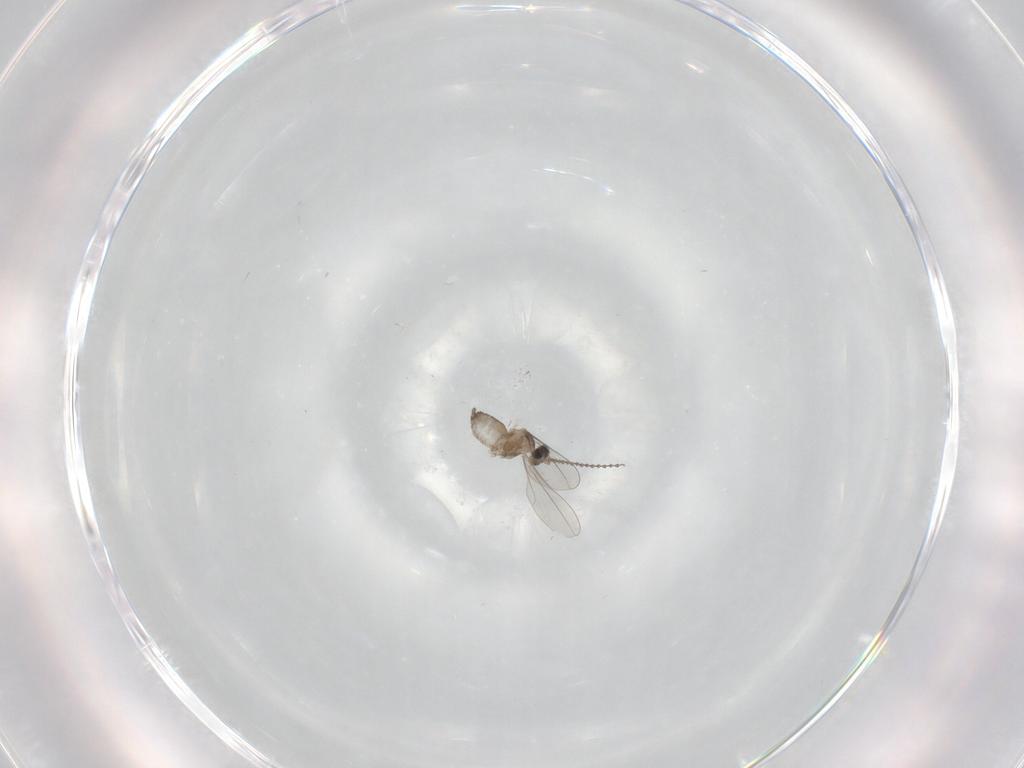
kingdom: Animalia
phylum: Arthropoda
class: Insecta
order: Diptera
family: Cecidomyiidae
